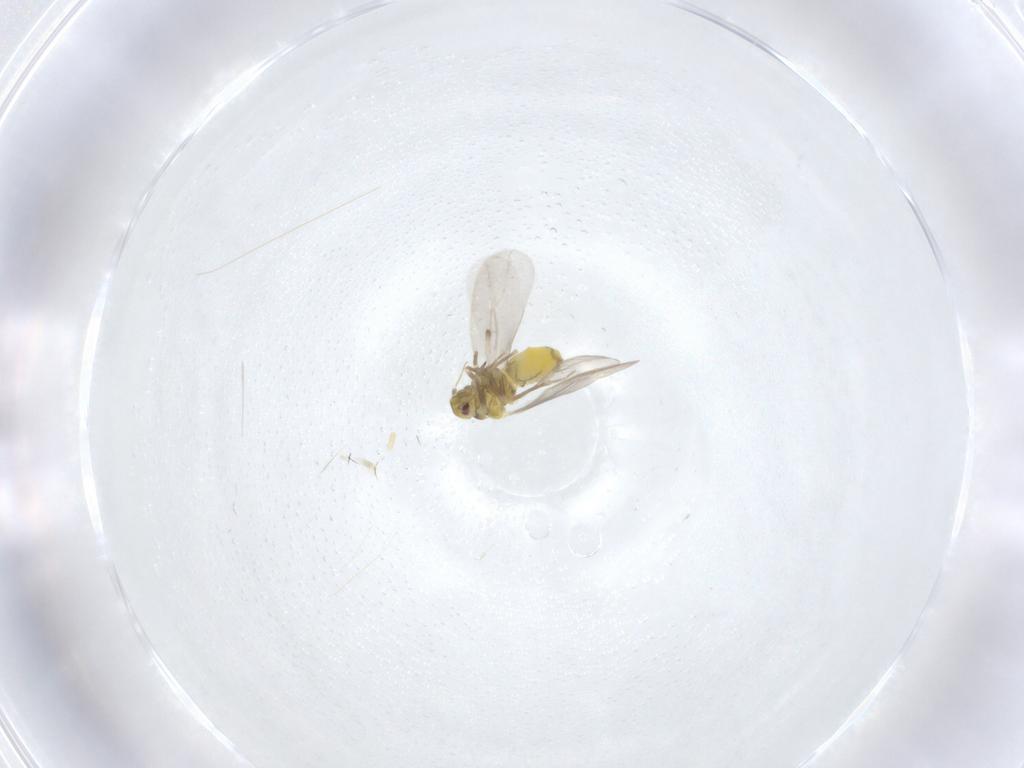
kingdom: Animalia
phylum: Arthropoda
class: Insecta
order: Hemiptera
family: Aleyrodidae
